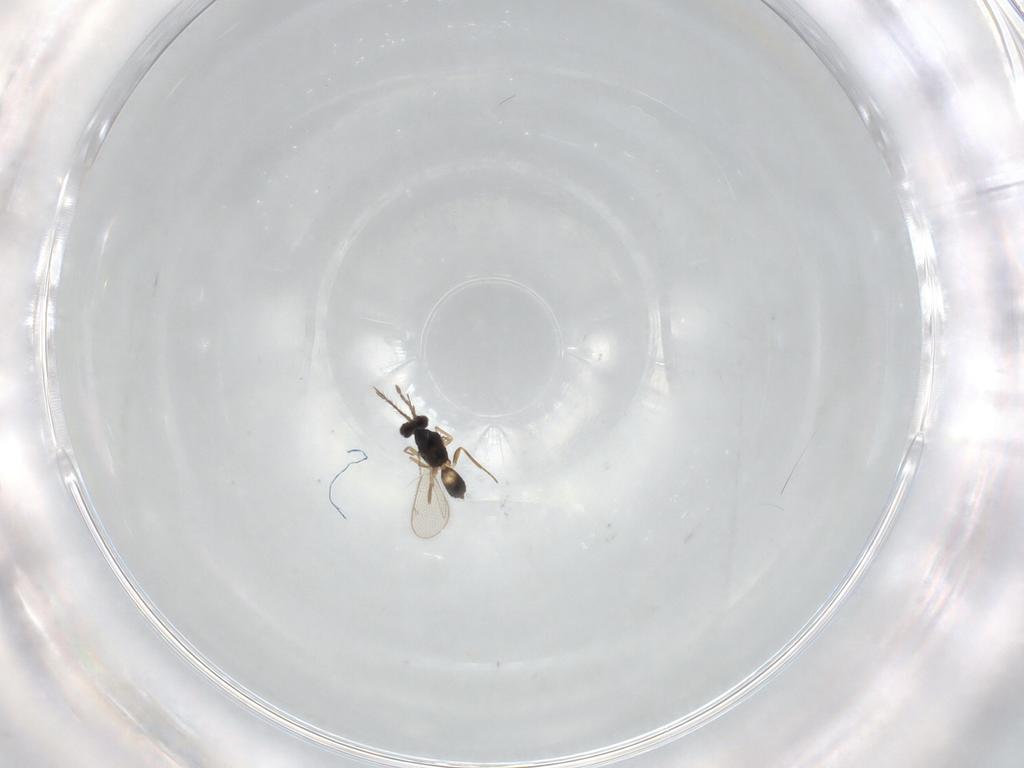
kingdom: Animalia
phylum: Arthropoda
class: Insecta
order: Hymenoptera
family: Eulophidae
